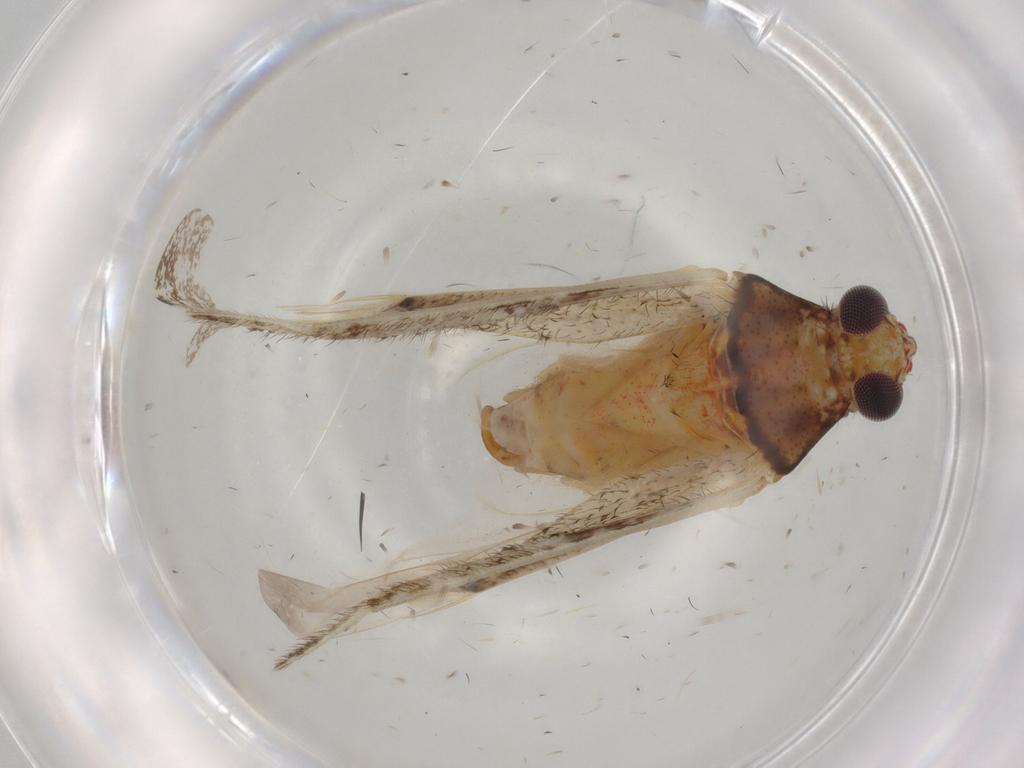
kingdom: Animalia
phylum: Arthropoda
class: Insecta
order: Hemiptera
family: Miridae
